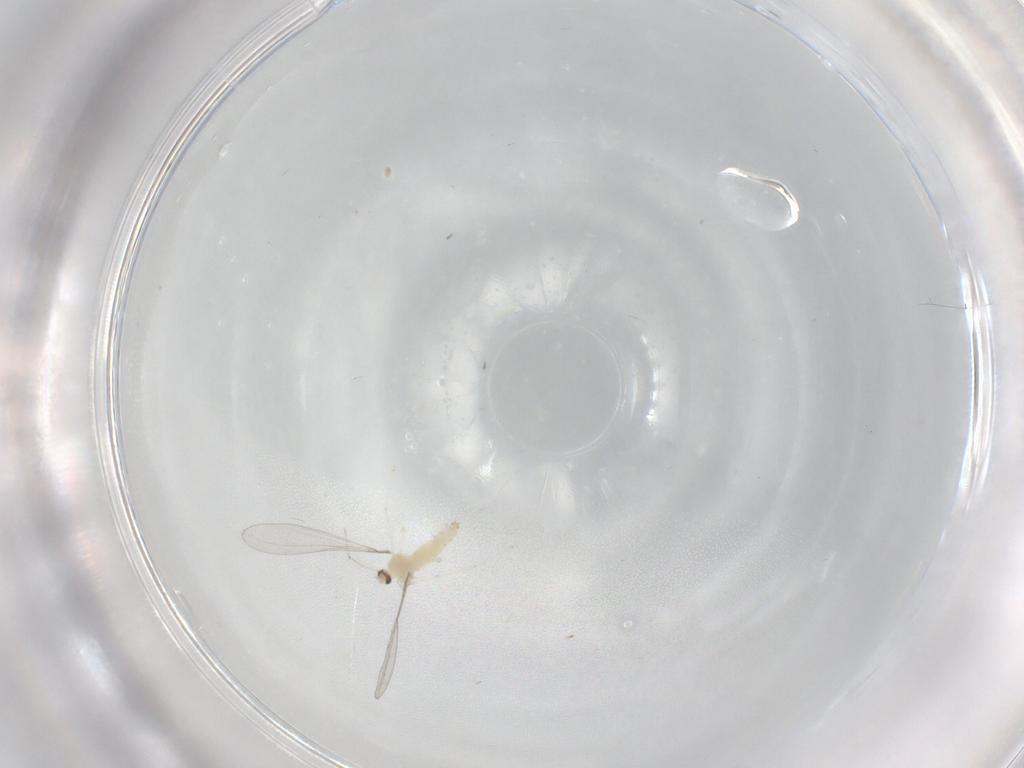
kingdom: Animalia
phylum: Arthropoda
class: Insecta
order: Diptera
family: Cecidomyiidae
